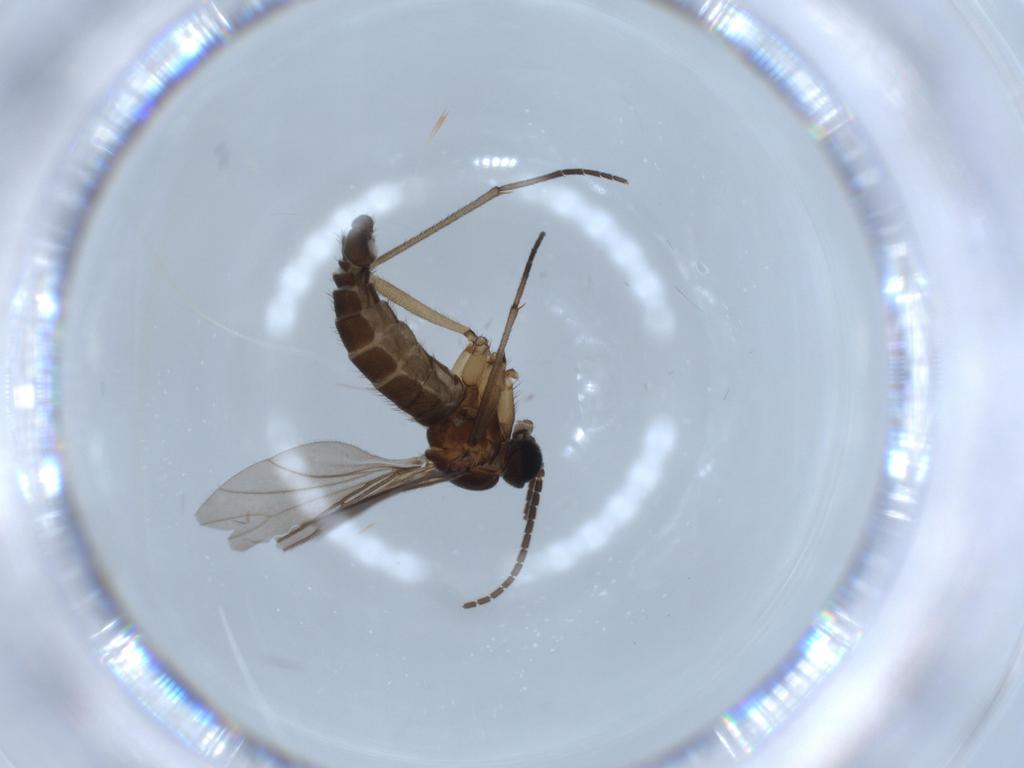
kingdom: Animalia
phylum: Arthropoda
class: Insecta
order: Diptera
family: Sciaridae
